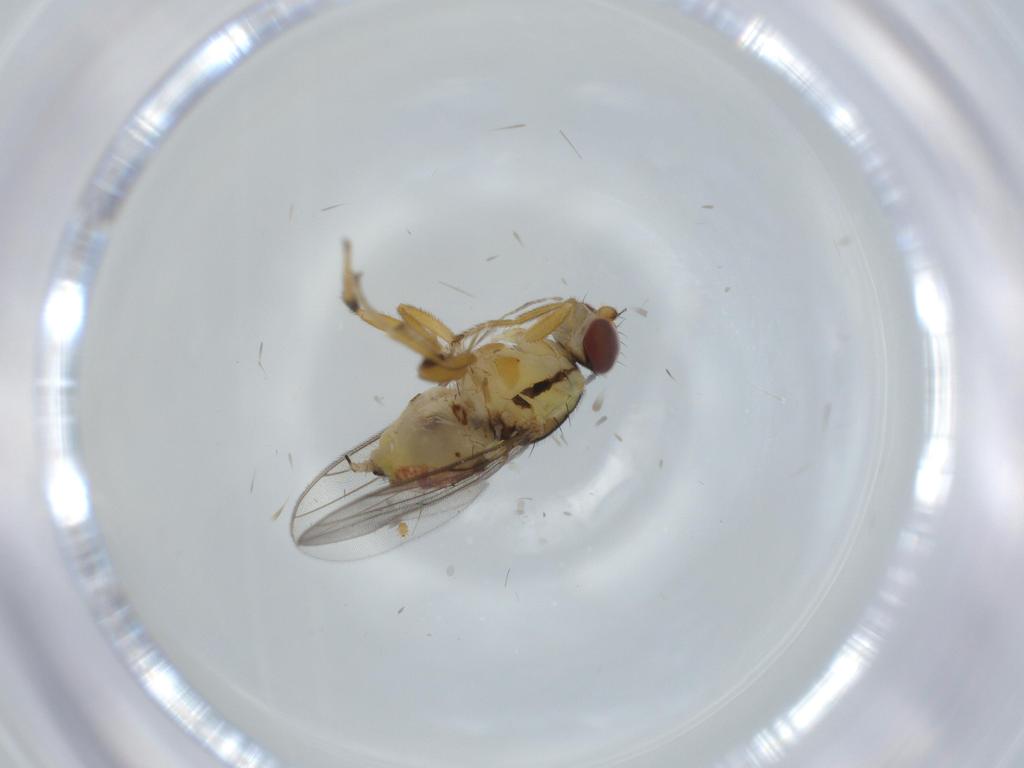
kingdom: Animalia
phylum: Arthropoda
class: Insecta
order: Diptera
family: Chloropidae
